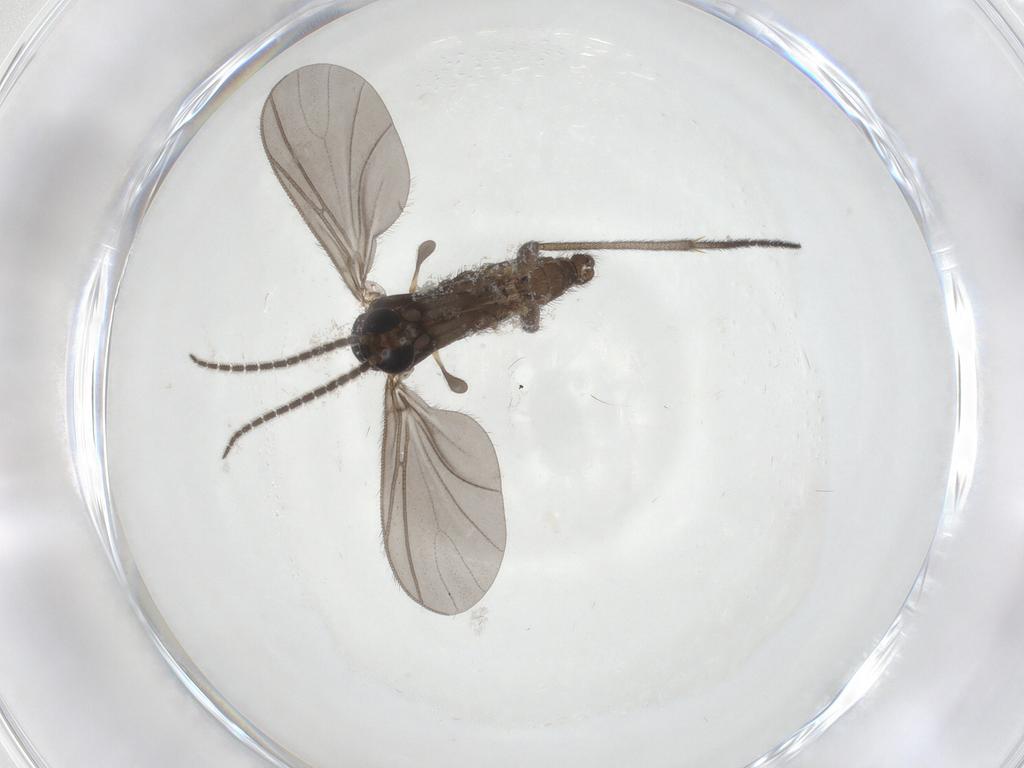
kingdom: Animalia
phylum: Arthropoda
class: Insecta
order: Diptera
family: Sciaridae
